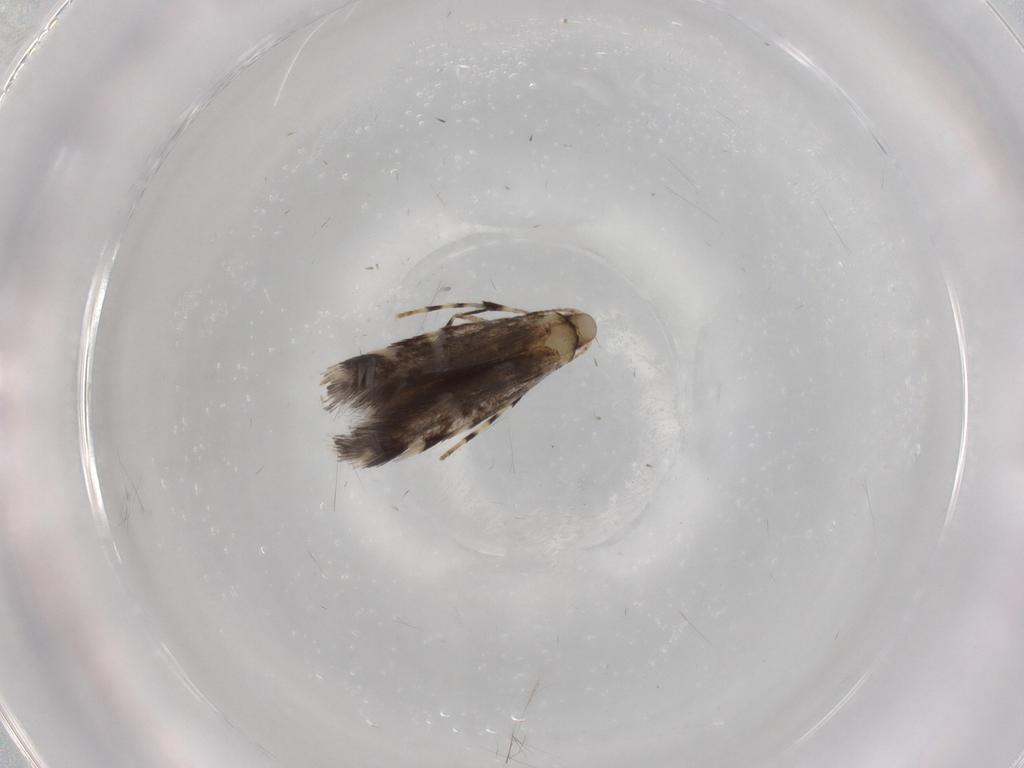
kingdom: Animalia
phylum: Arthropoda
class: Insecta
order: Lepidoptera
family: Gracillariidae
